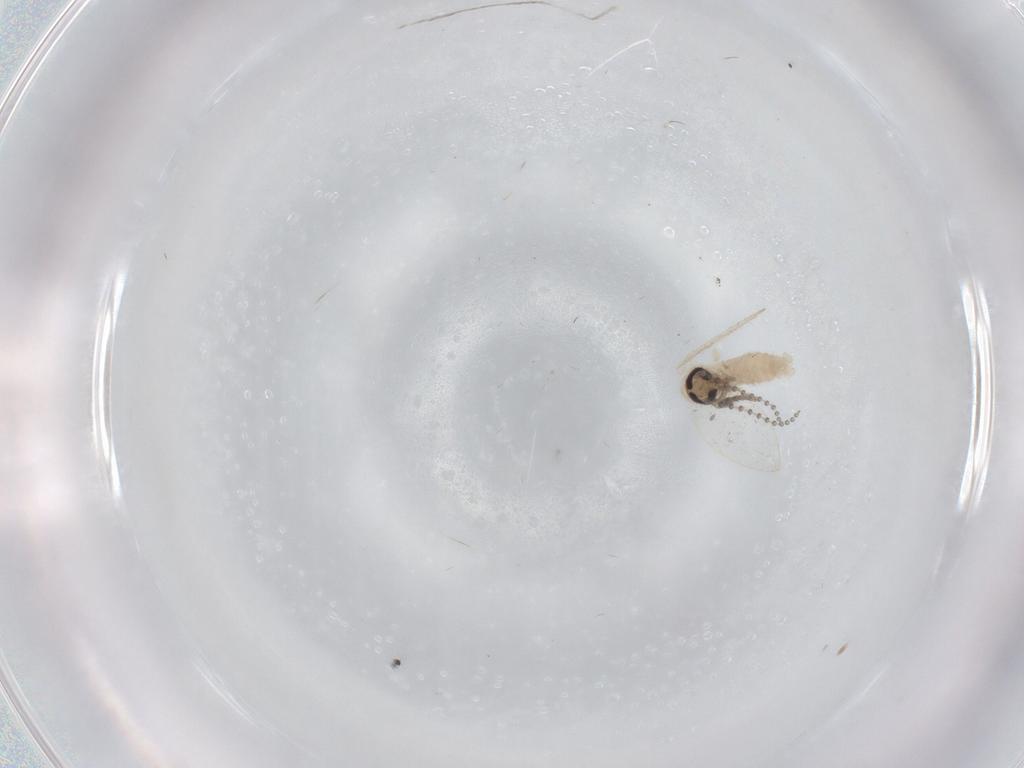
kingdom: Animalia
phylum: Arthropoda
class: Insecta
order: Diptera
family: Cecidomyiidae
